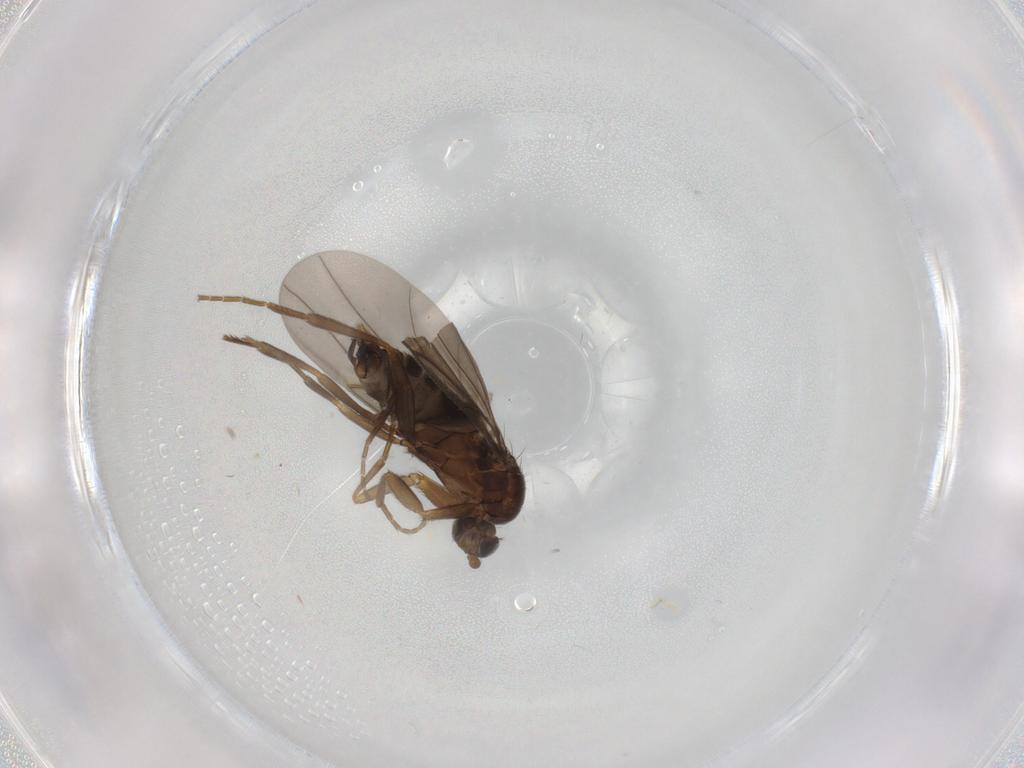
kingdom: Animalia
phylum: Arthropoda
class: Insecta
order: Diptera
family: Phoridae
